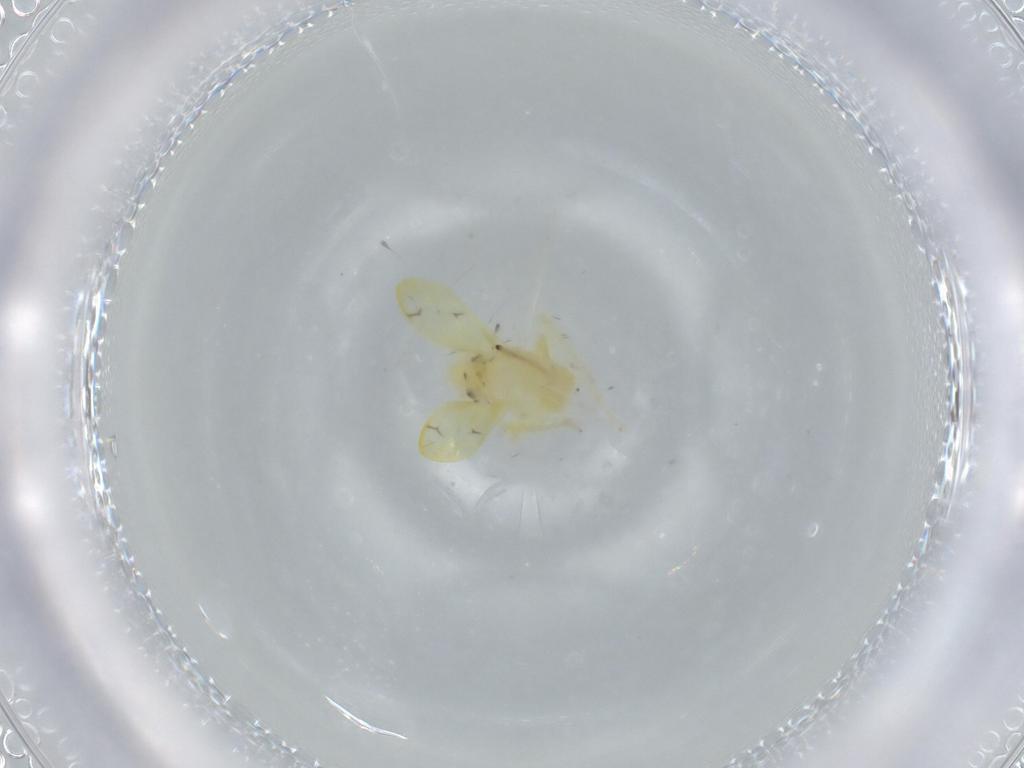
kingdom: Animalia
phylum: Arthropoda
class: Insecta
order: Hemiptera
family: Cicadellidae
